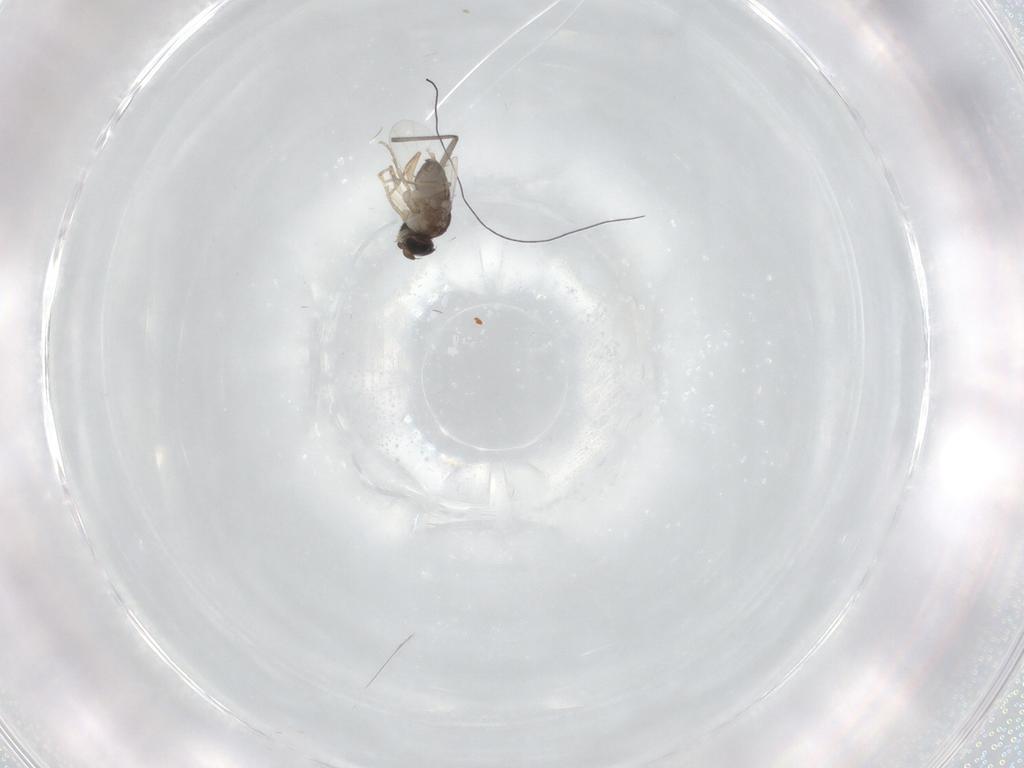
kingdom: Animalia
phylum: Arthropoda
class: Insecta
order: Diptera
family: Phoridae
